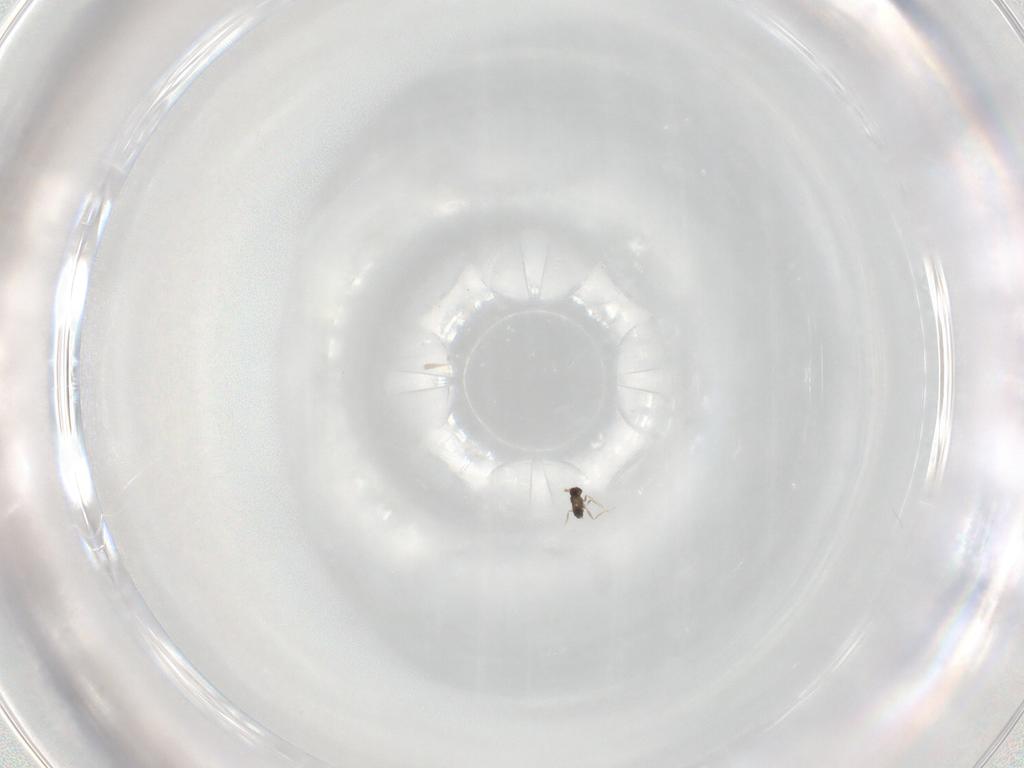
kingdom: Animalia
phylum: Arthropoda
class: Insecta
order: Hymenoptera
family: Mymaridae
